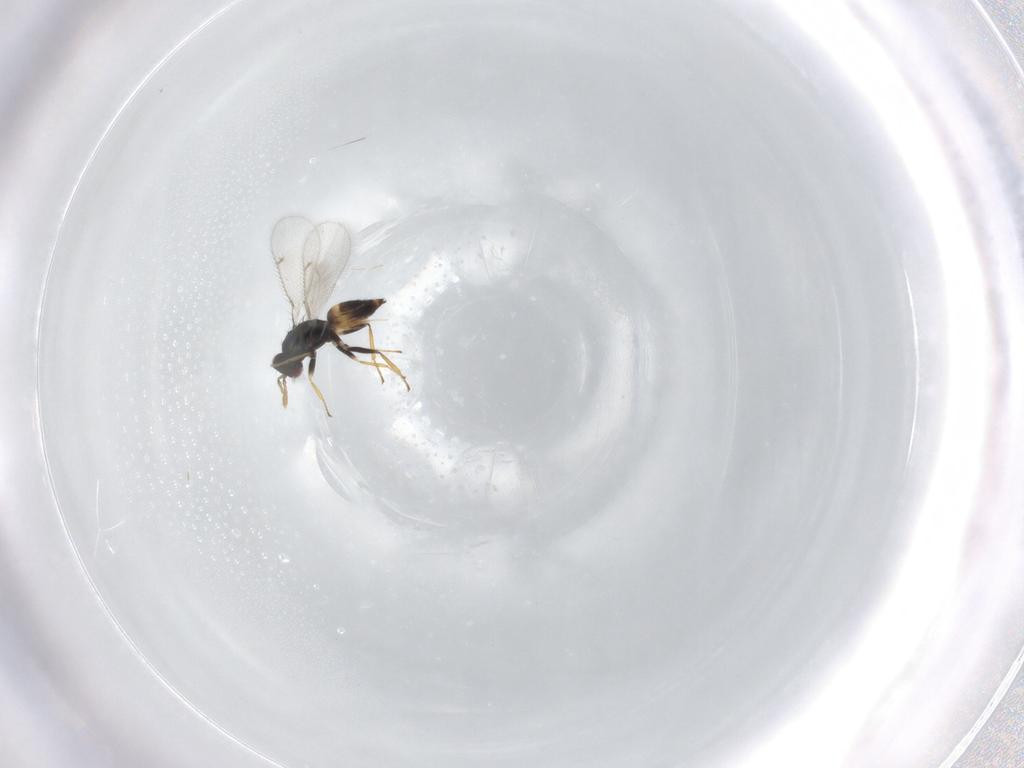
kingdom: Animalia
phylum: Arthropoda
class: Insecta
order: Hymenoptera
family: Eulophidae
